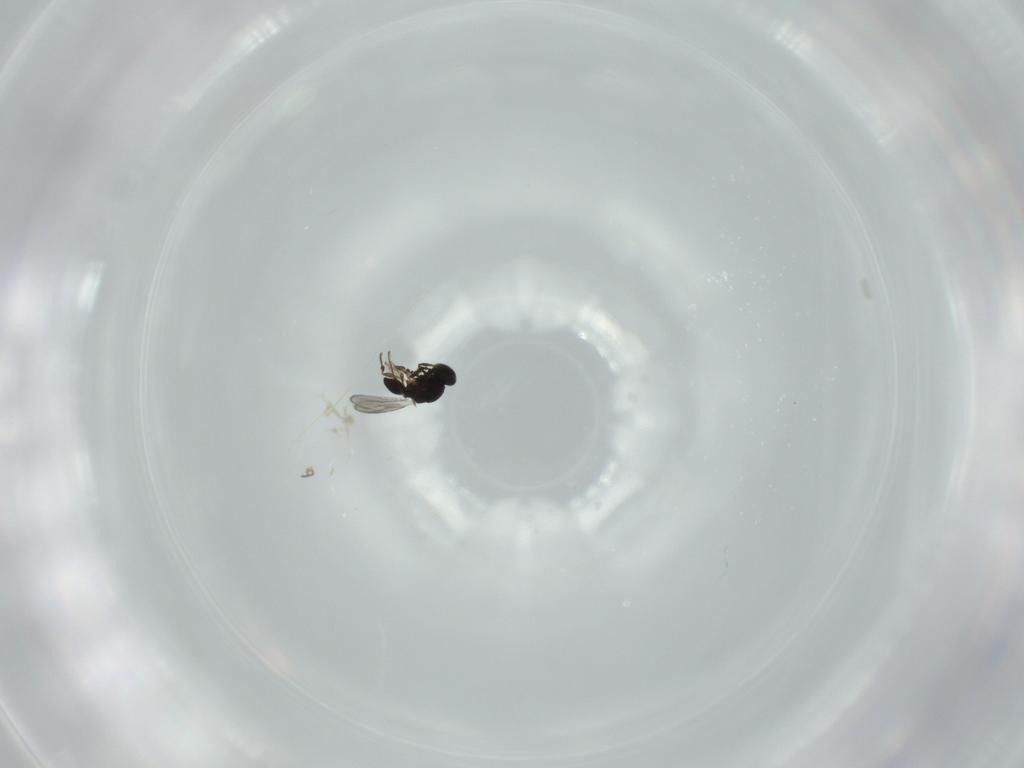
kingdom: Animalia
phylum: Arthropoda
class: Insecta
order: Hymenoptera
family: Platygastridae
